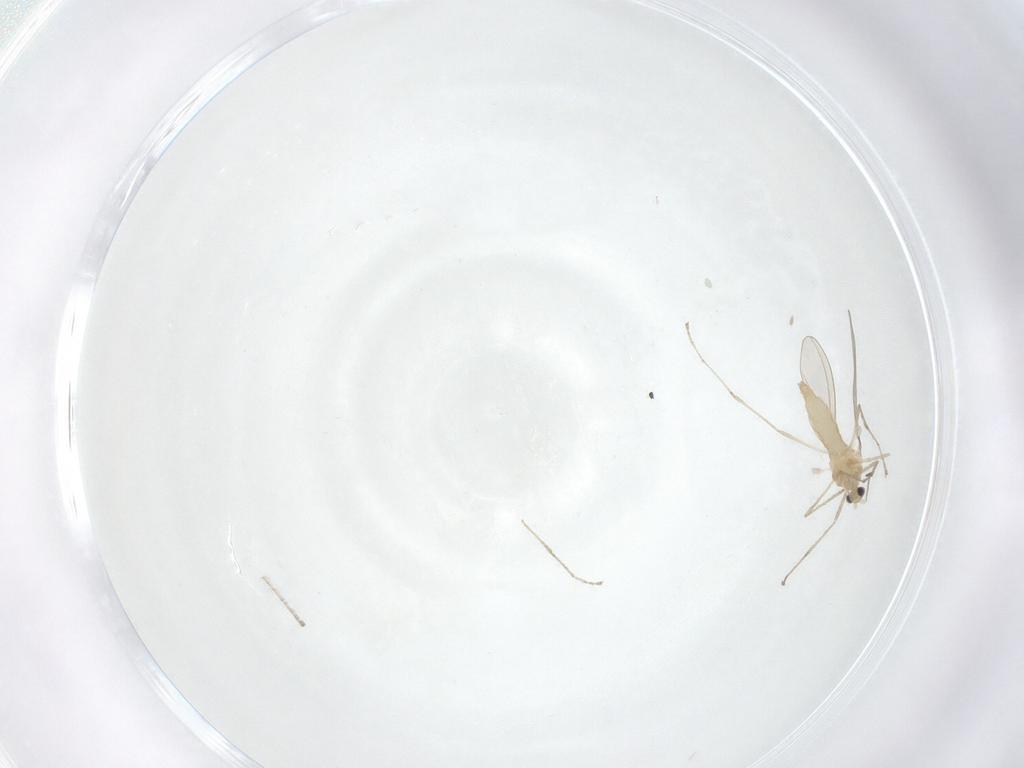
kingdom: Animalia
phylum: Arthropoda
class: Insecta
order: Diptera
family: Cecidomyiidae
